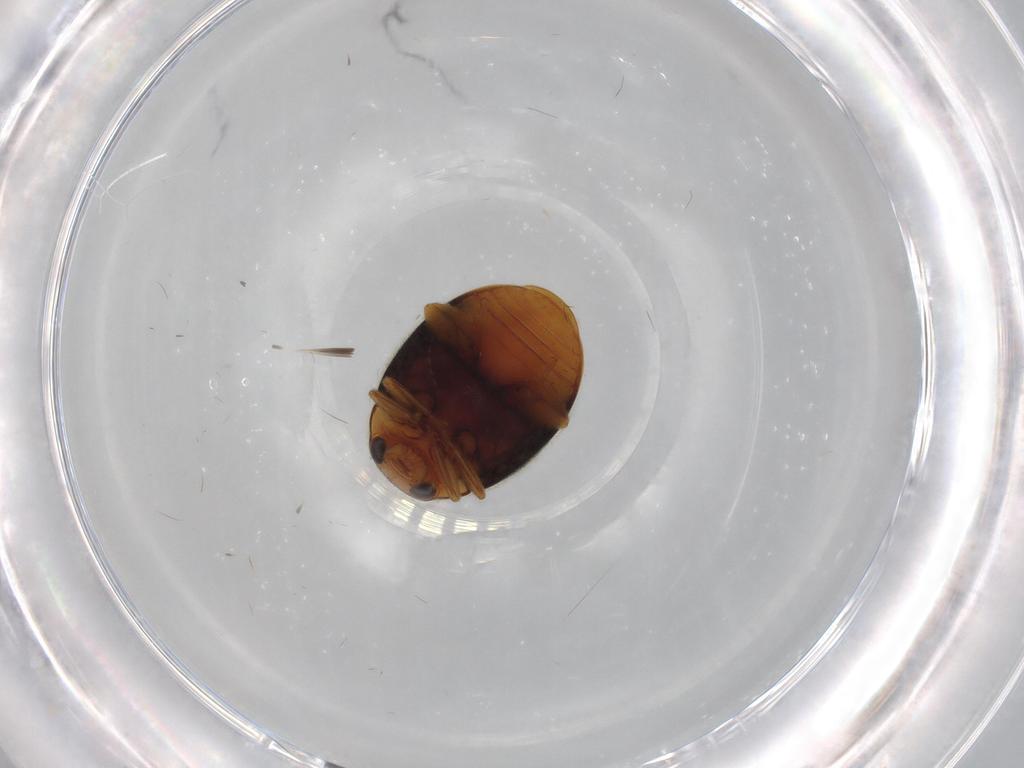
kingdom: Animalia
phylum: Arthropoda
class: Insecta
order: Coleoptera
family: Coccinellidae
